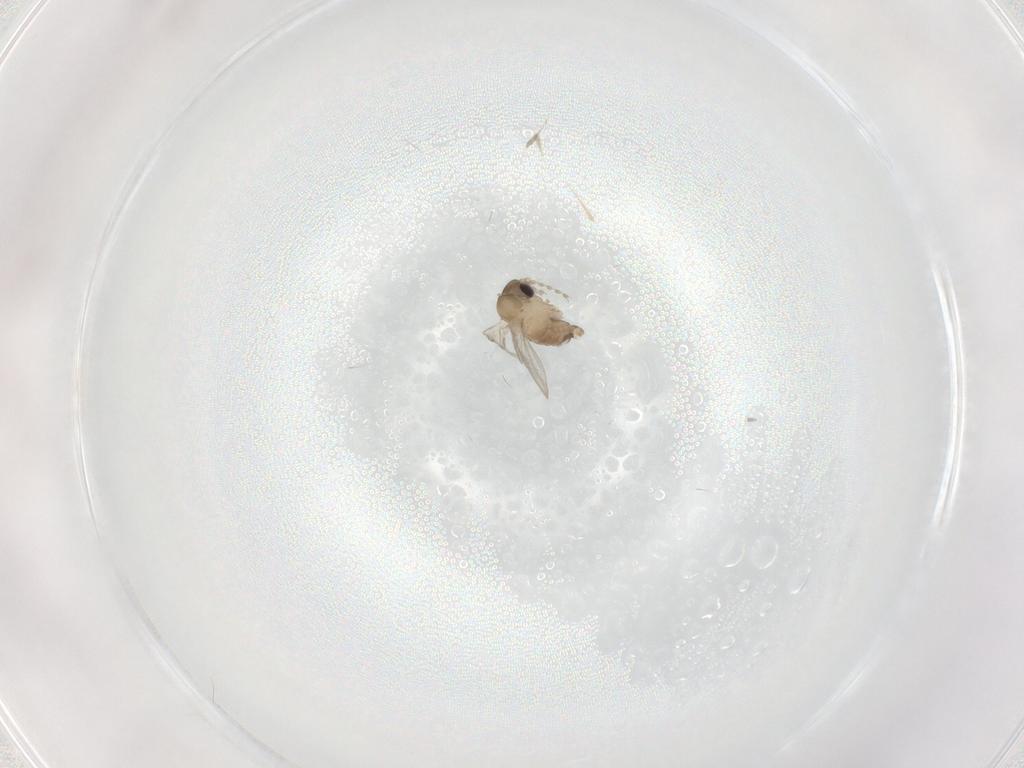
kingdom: Animalia
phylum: Arthropoda
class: Insecta
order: Diptera
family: Psychodidae
